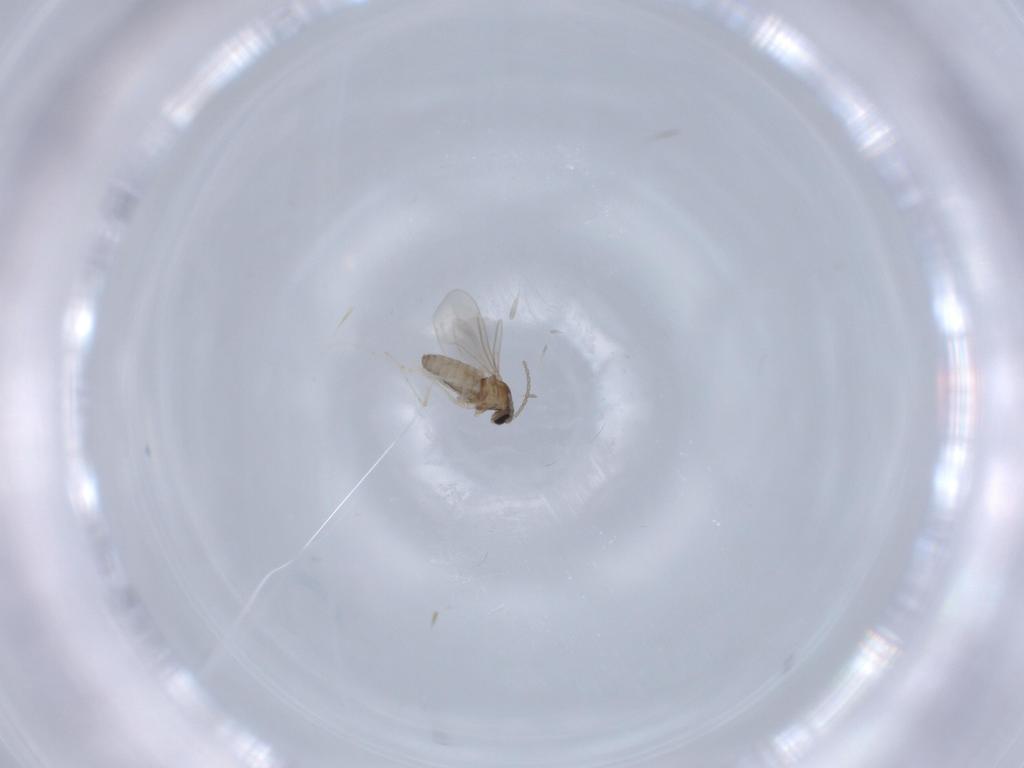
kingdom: Animalia
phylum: Arthropoda
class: Insecta
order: Diptera
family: Cecidomyiidae
